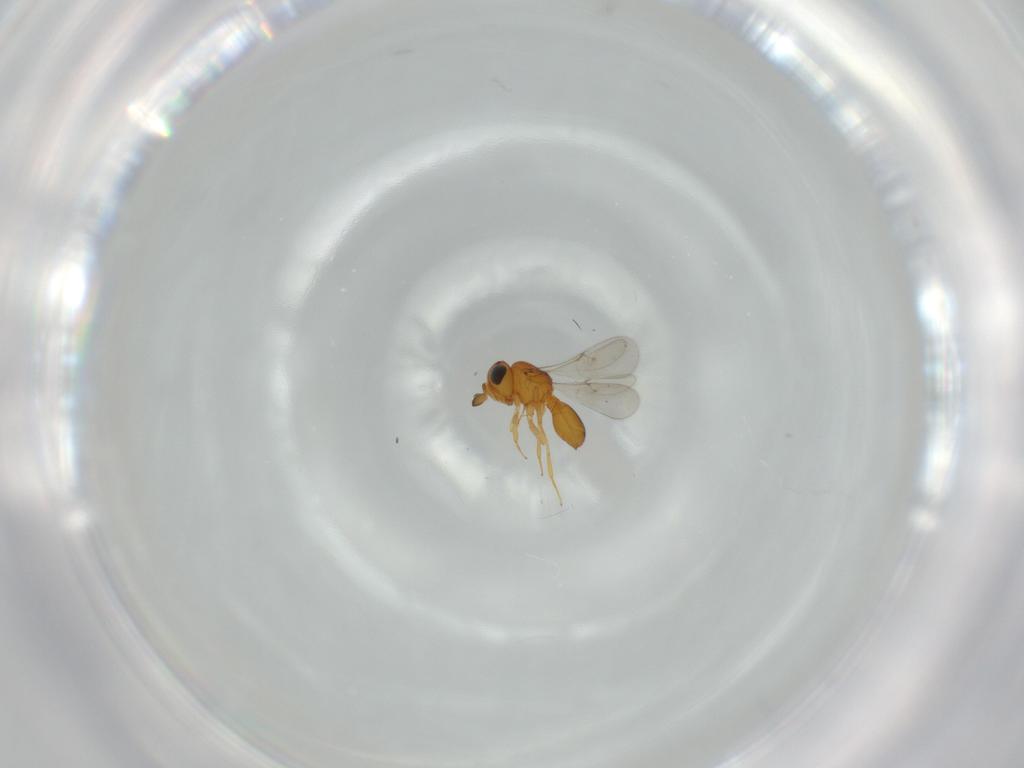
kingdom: Animalia
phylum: Arthropoda
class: Insecta
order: Hymenoptera
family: Scelionidae
